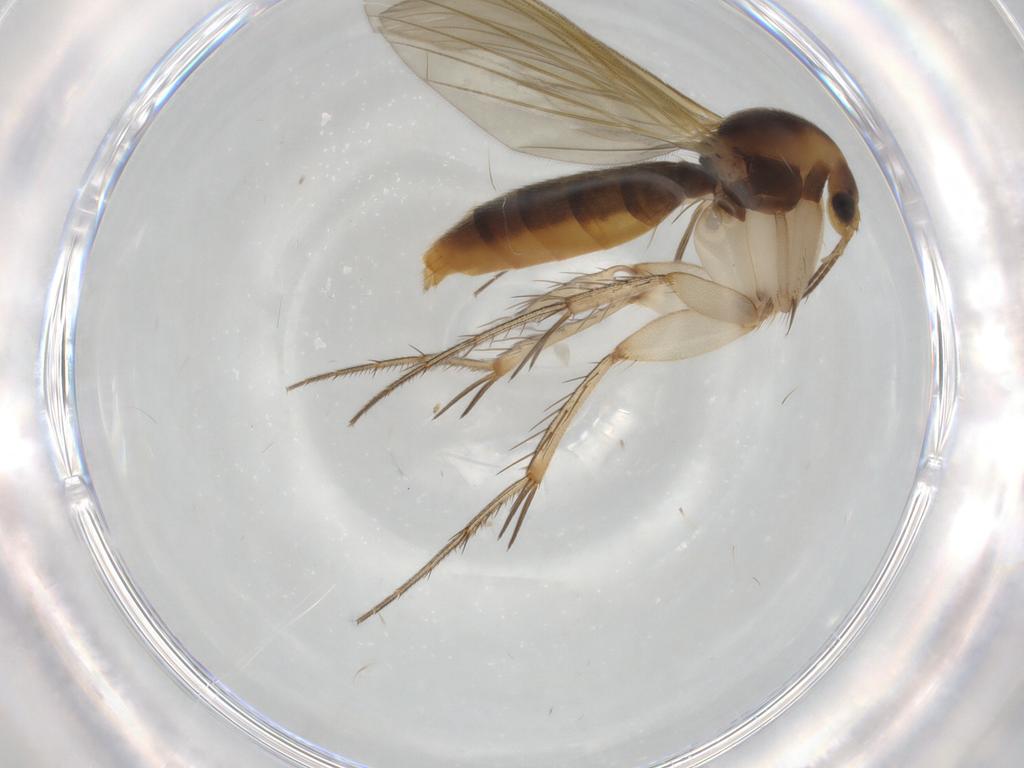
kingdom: Animalia
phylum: Arthropoda
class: Insecta
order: Diptera
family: Mycetophilidae
